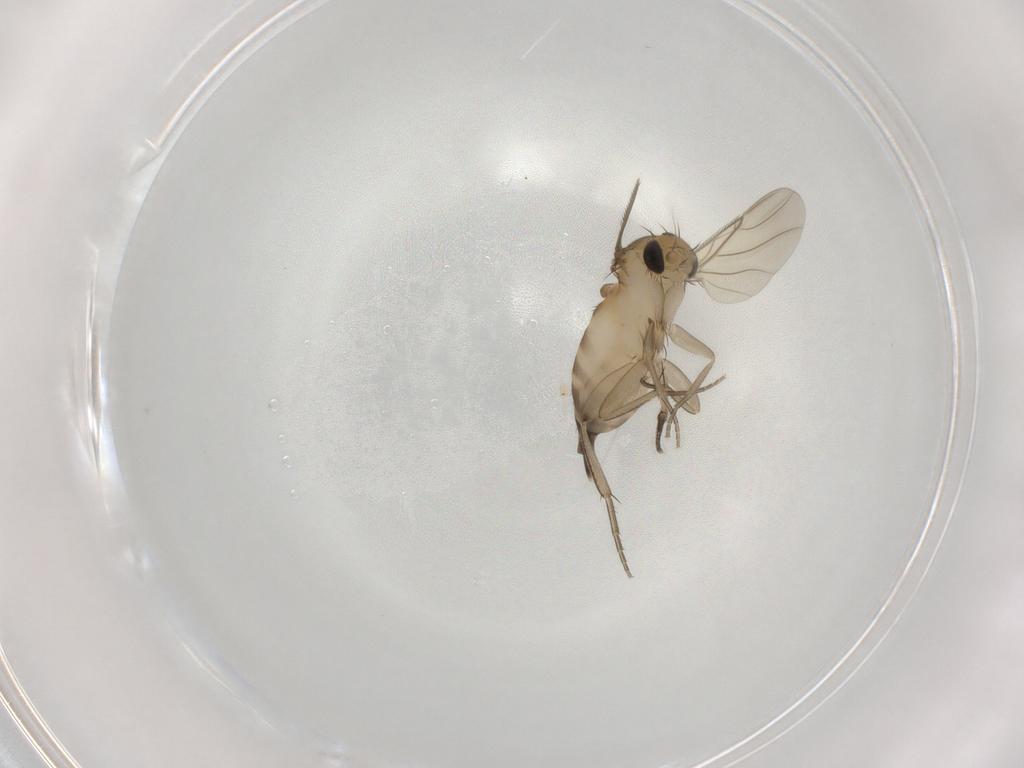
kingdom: Animalia
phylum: Arthropoda
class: Insecta
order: Diptera
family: Phoridae
